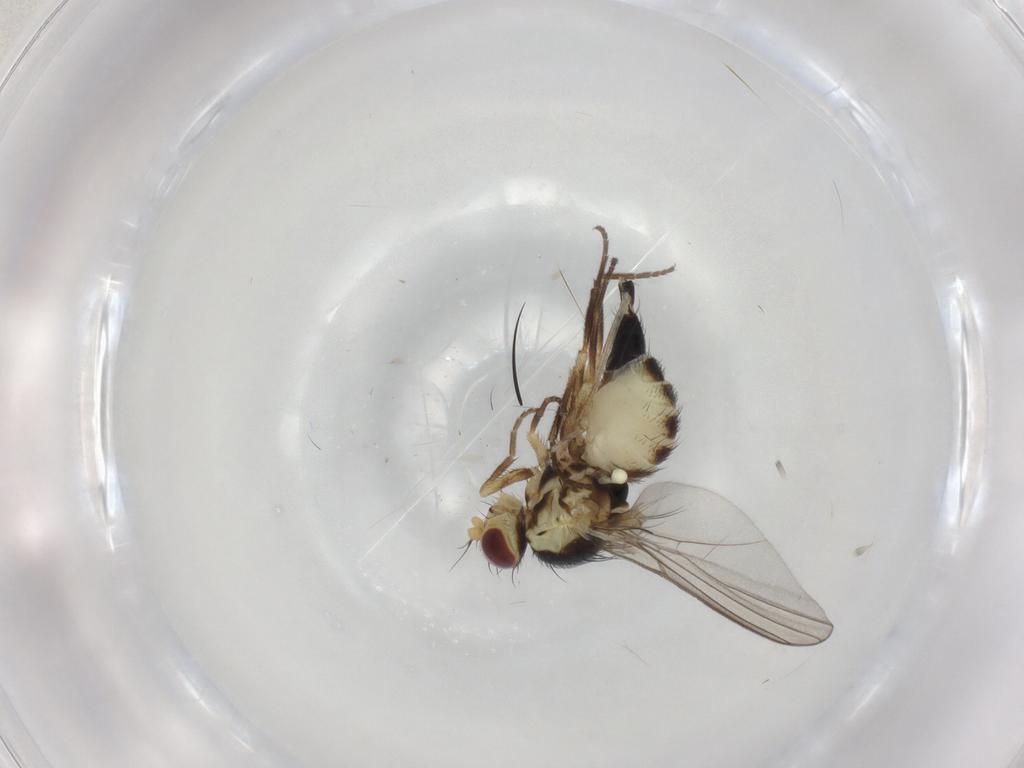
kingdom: Animalia
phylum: Arthropoda
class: Insecta
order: Diptera
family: Agromyzidae
